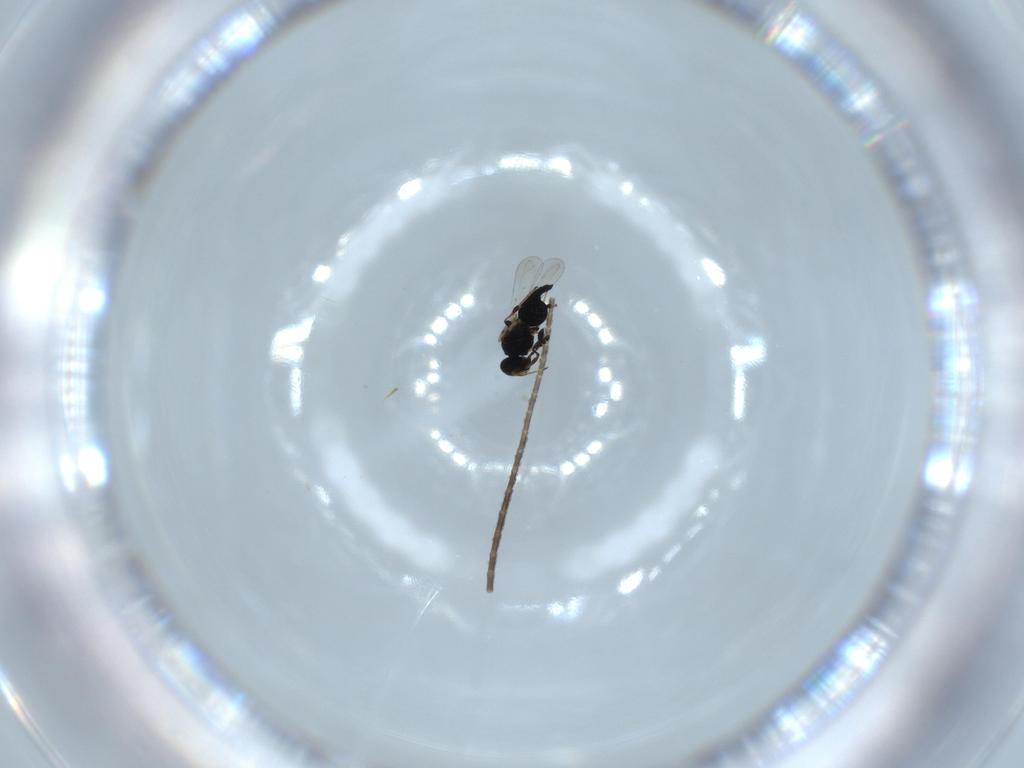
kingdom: Animalia
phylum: Arthropoda
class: Insecta
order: Hymenoptera
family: Platygastridae
